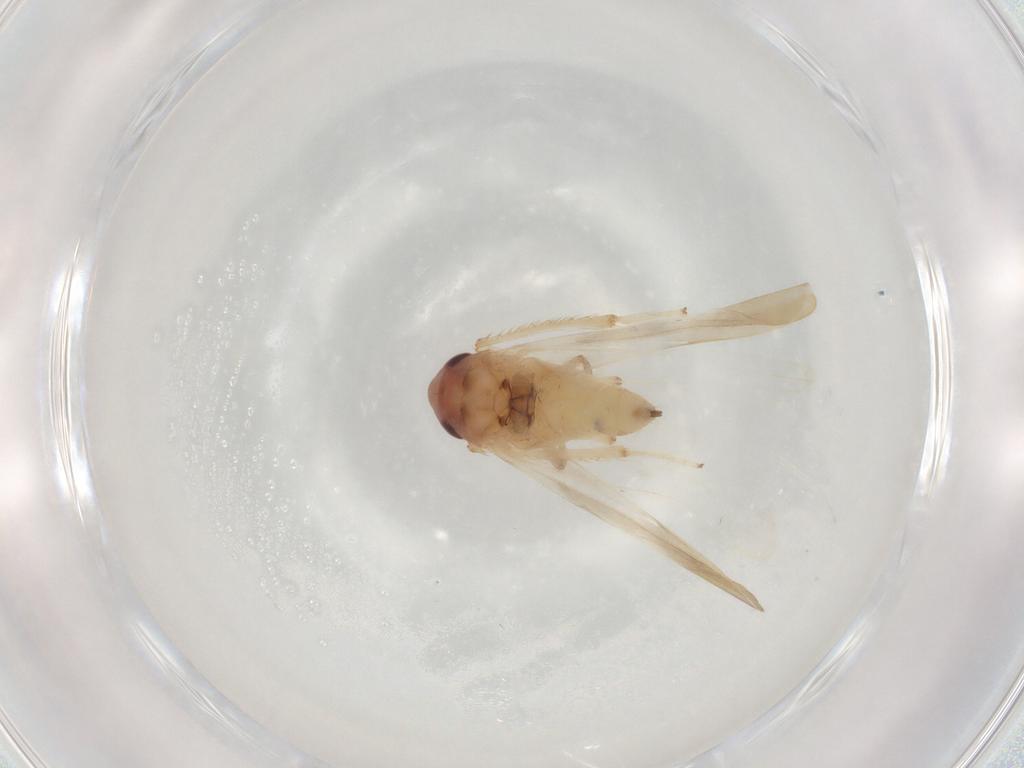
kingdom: Animalia
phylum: Arthropoda
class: Insecta
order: Hemiptera
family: Cicadellidae
